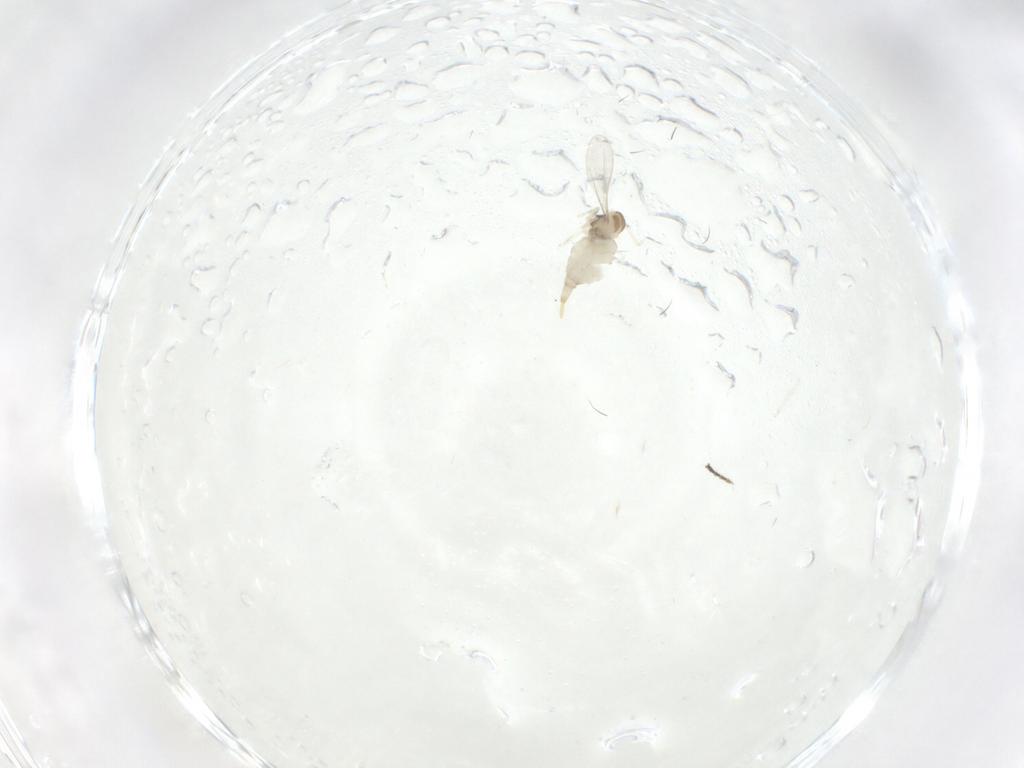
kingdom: Animalia
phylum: Arthropoda
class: Insecta
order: Diptera
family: Cecidomyiidae
